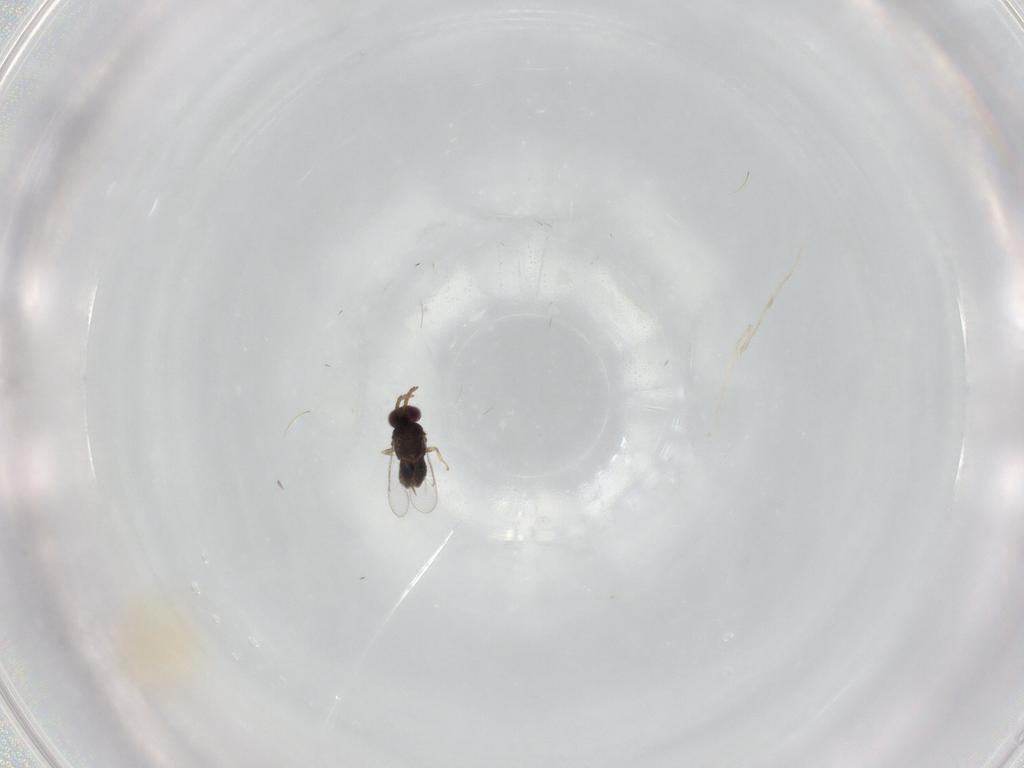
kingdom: Animalia
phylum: Arthropoda
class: Insecta
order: Hymenoptera
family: Aphelinidae
